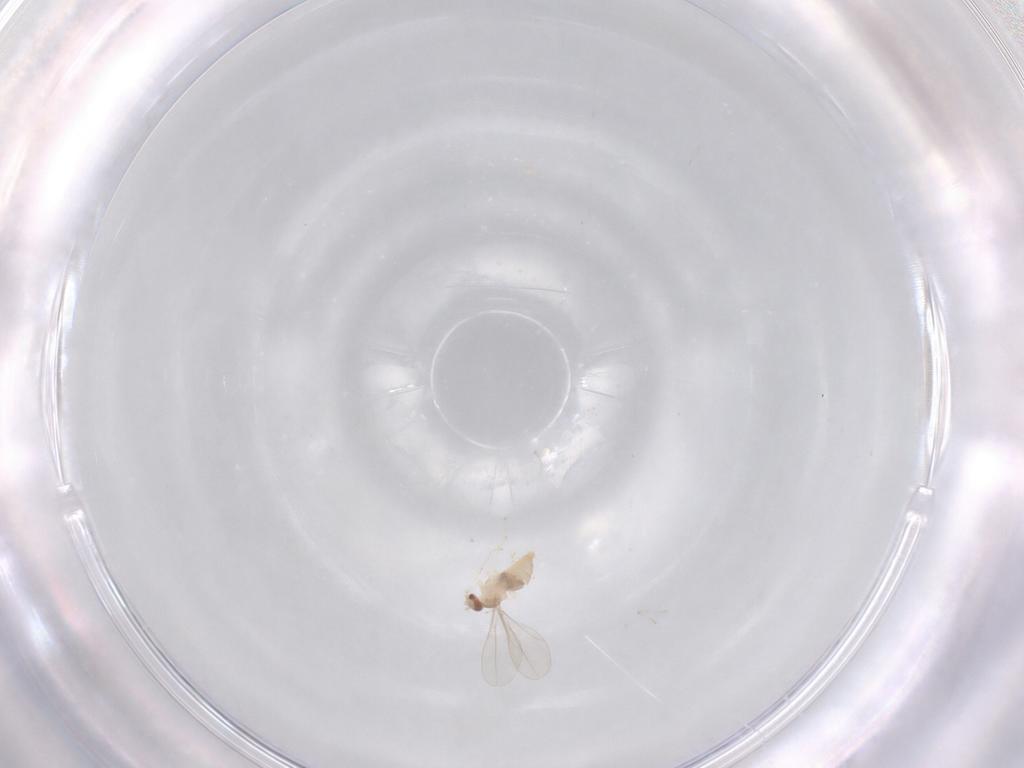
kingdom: Animalia
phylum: Arthropoda
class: Insecta
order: Diptera
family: Cecidomyiidae
